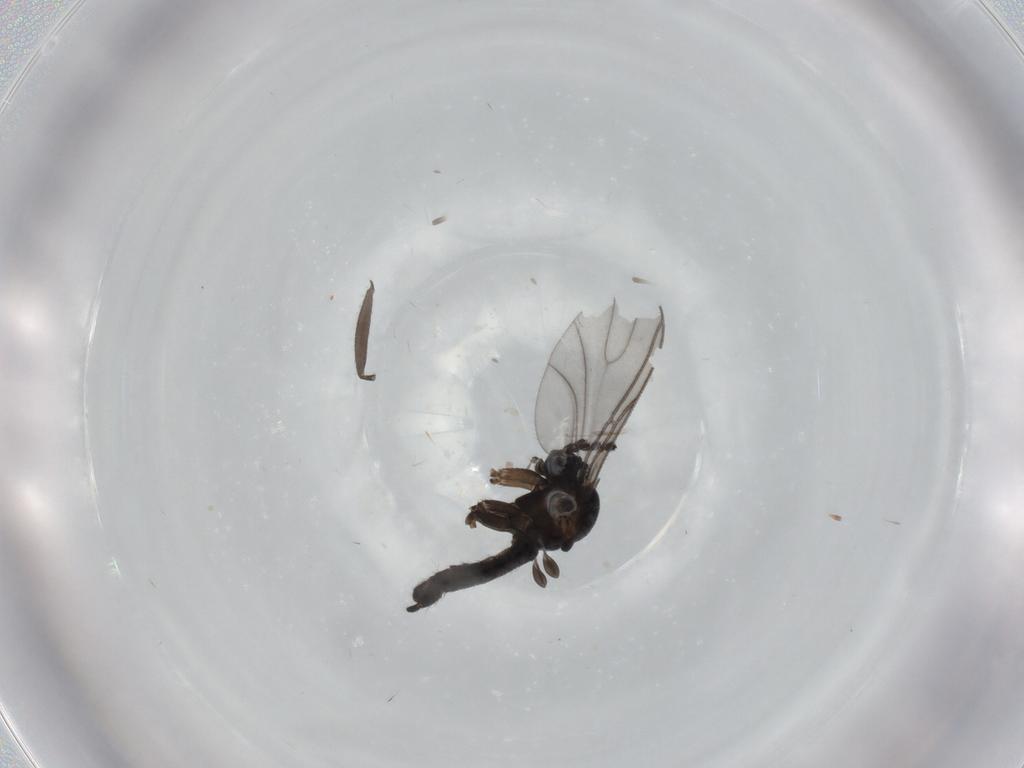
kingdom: Animalia
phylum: Arthropoda
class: Insecta
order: Diptera
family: Sciaridae
